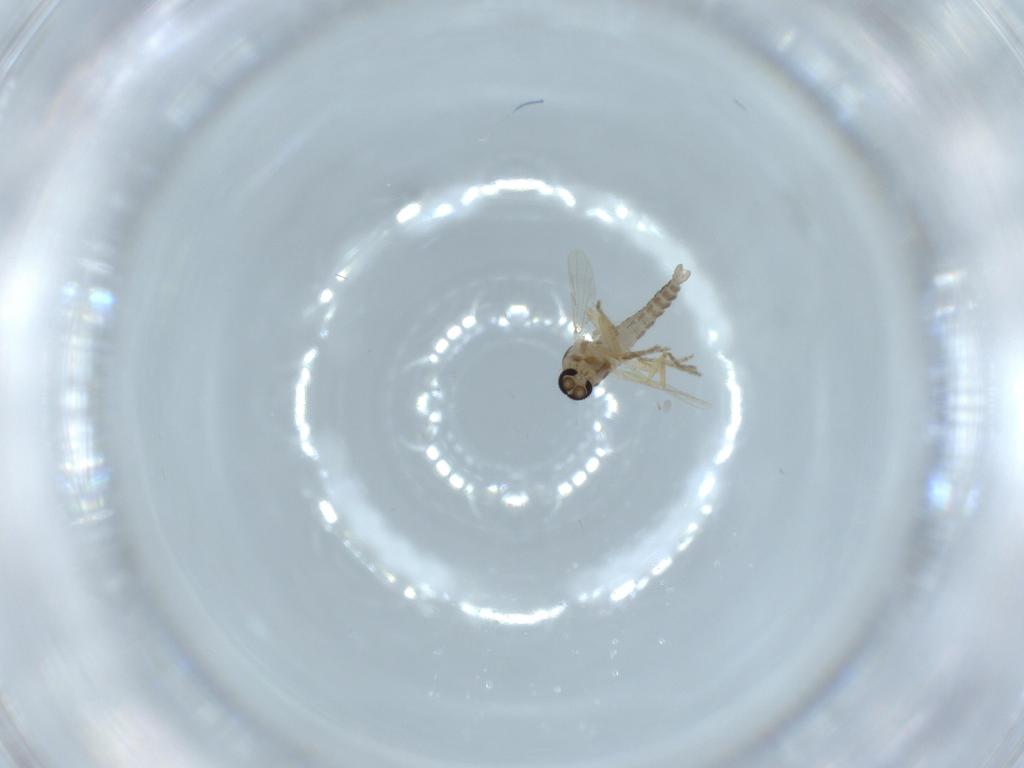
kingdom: Animalia
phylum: Arthropoda
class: Insecta
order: Diptera
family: Ceratopogonidae
